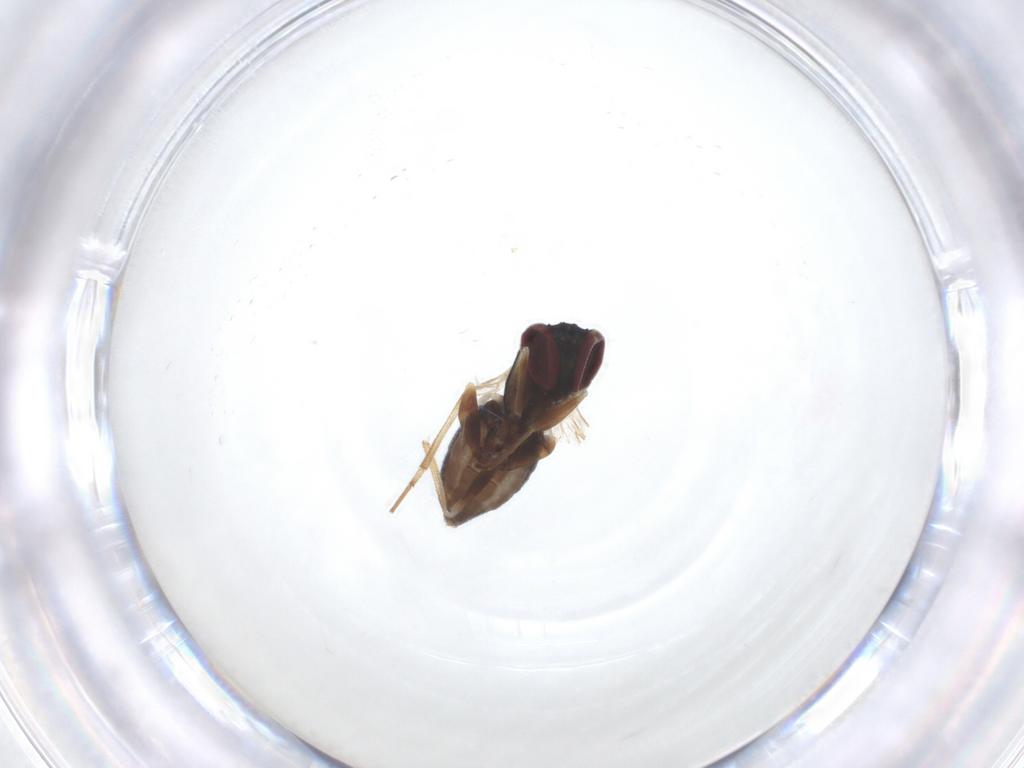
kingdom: Animalia
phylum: Arthropoda
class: Insecta
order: Diptera
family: Dolichopodidae
